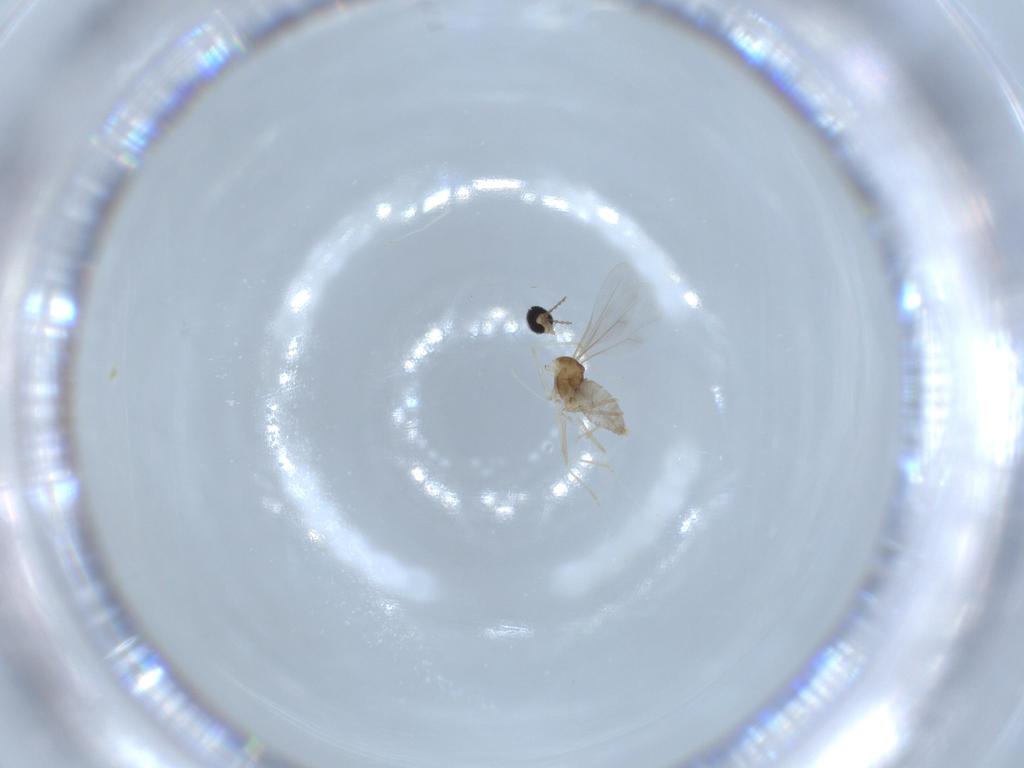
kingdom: Animalia
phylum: Arthropoda
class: Insecta
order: Diptera
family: Cecidomyiidae
